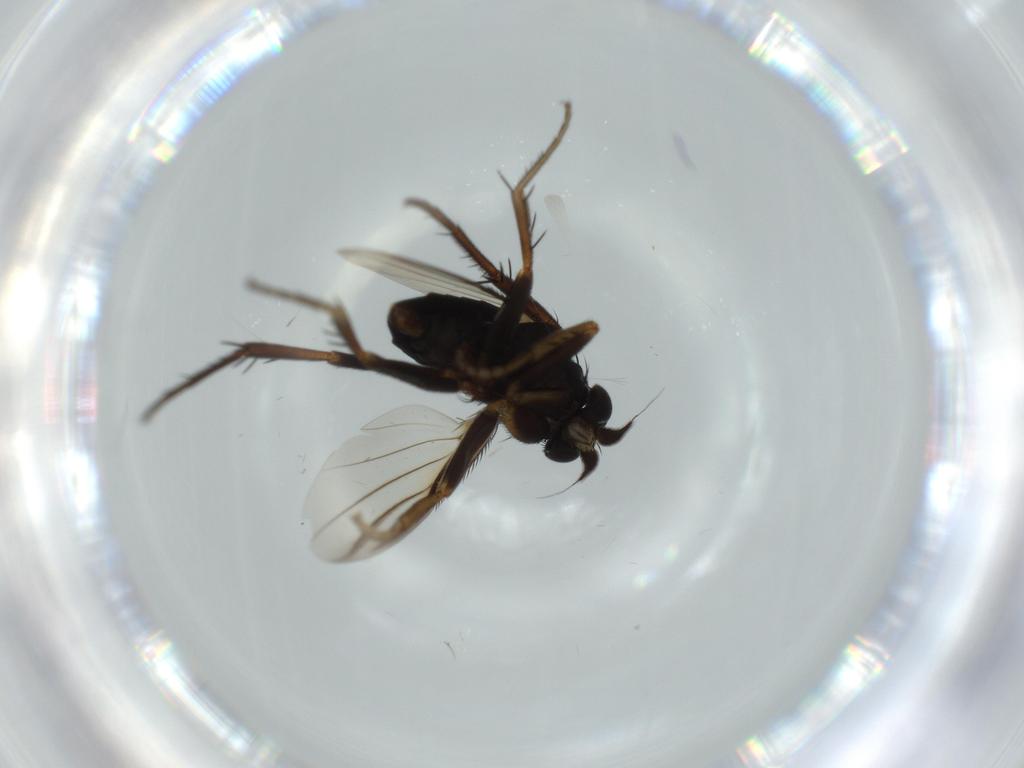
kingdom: Animalia
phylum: Arthropoda
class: Insecta
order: Diptera
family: Phoridae
